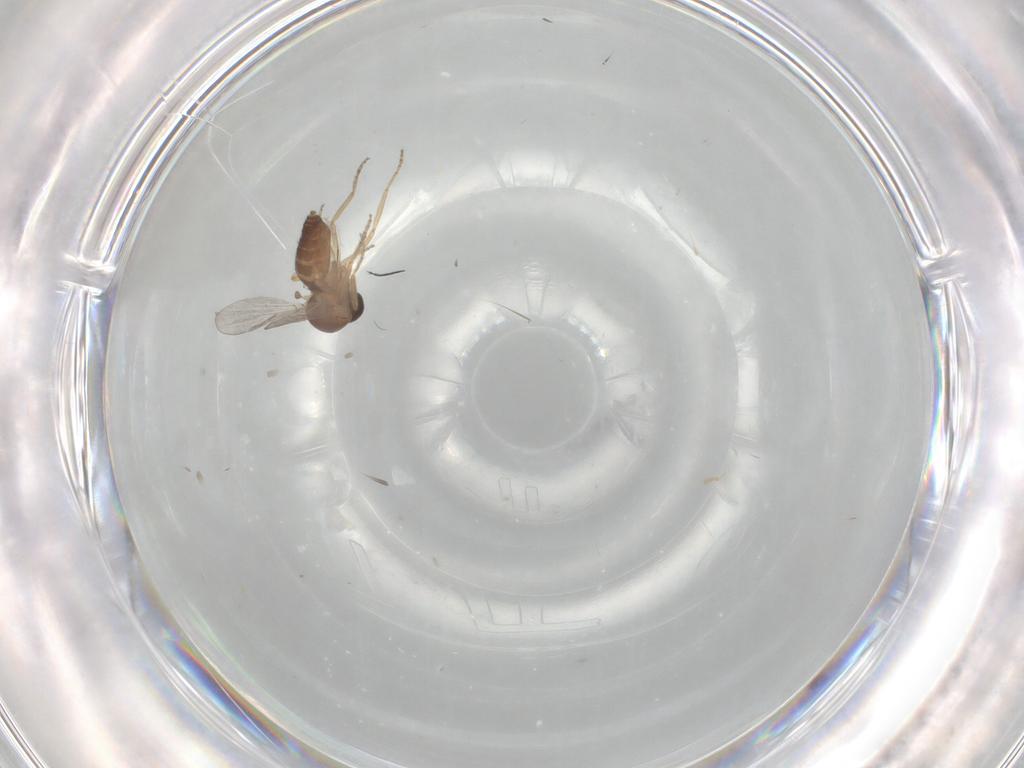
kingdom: Animalia
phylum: Arthropoda
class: Insecta
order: Diptera
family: Ceratopogonidae
